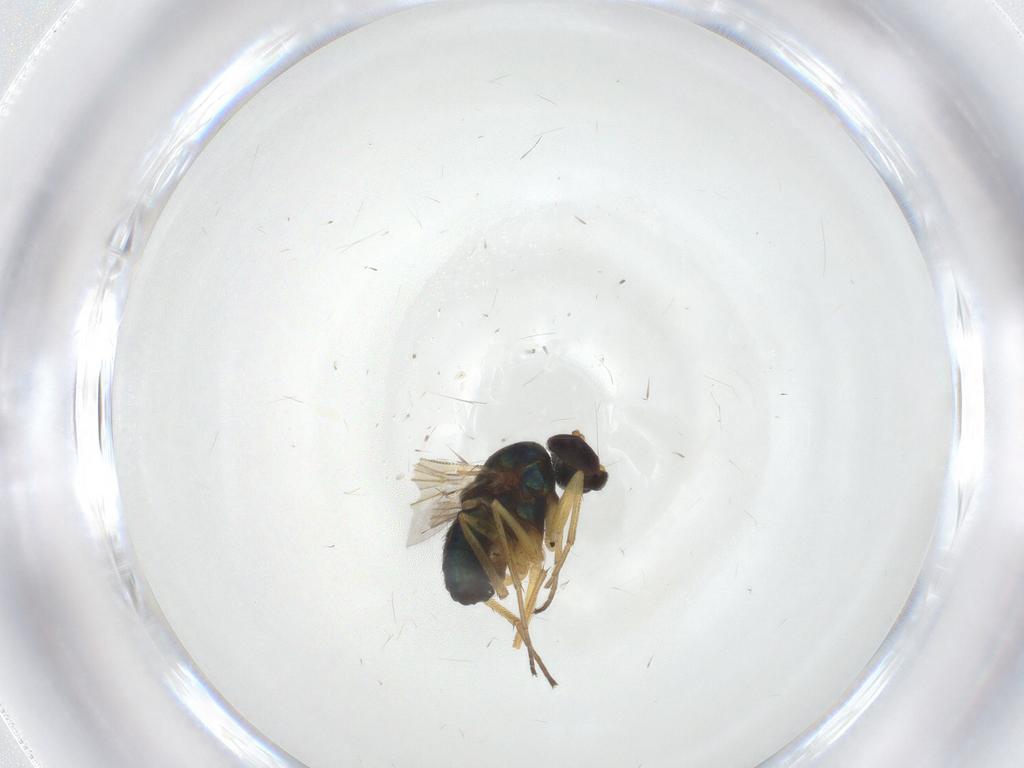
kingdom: Animalia
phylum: Arthropoda
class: Insecta
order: Diptera
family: Dolichopodidae
